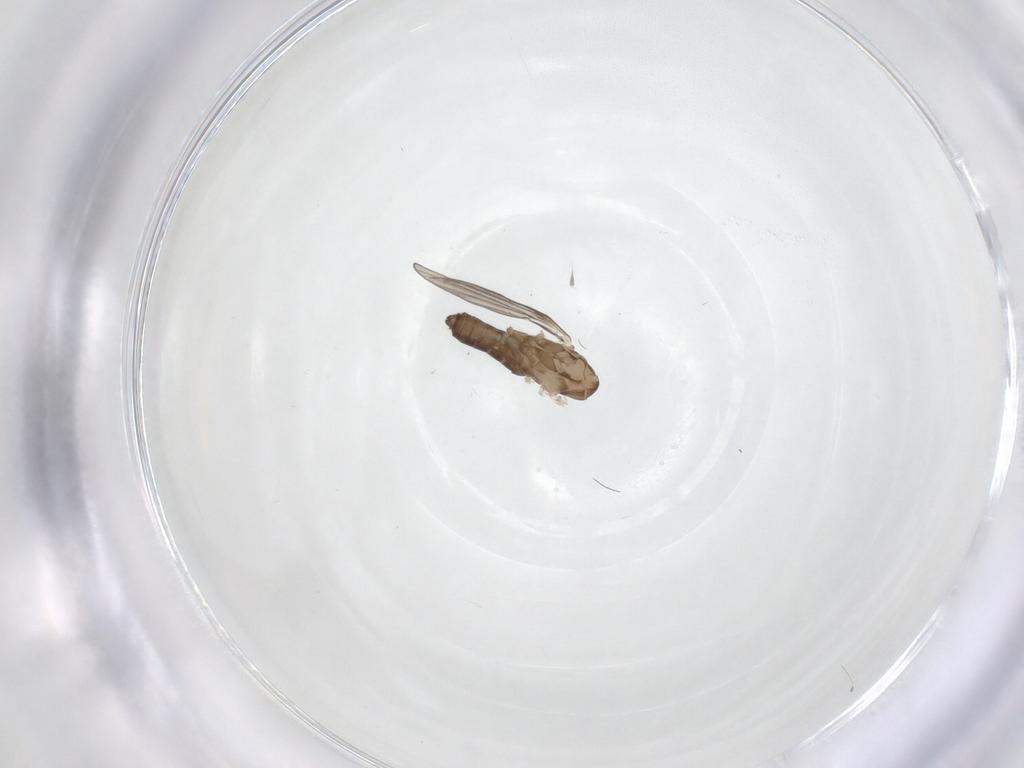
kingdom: Animalia
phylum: Arthropoda
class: Insecta
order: Diptera
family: Psychodidae
